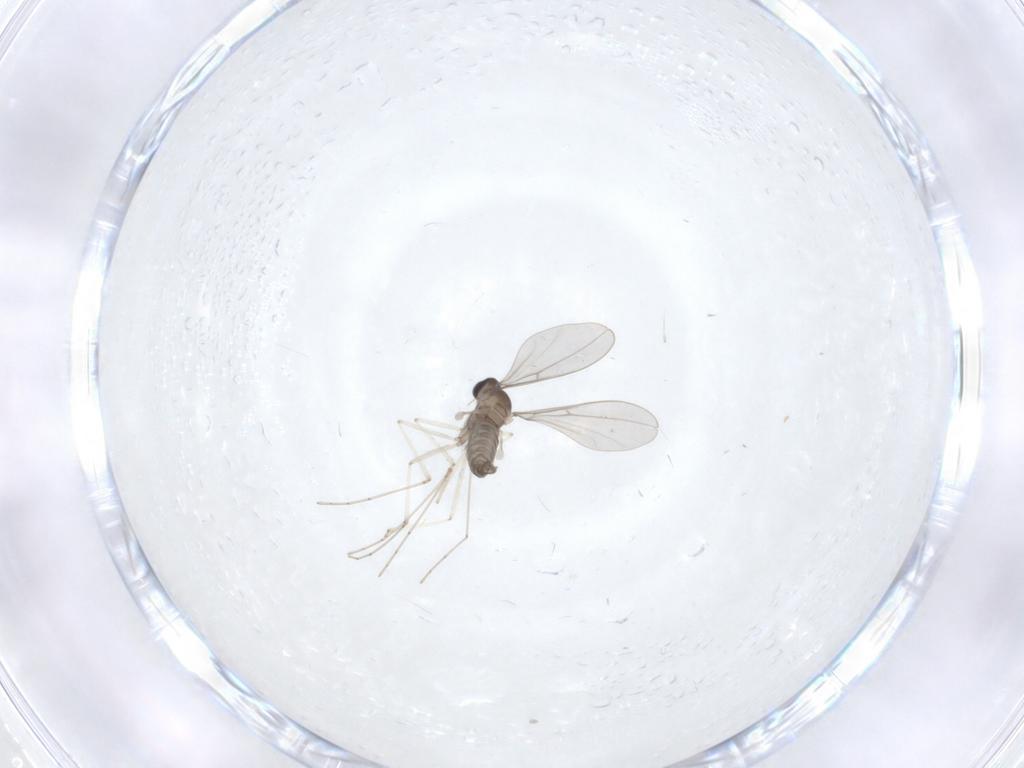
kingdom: Animalia
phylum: Arthropoda
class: Insecta
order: Diptera
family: Cecidomyiidae
